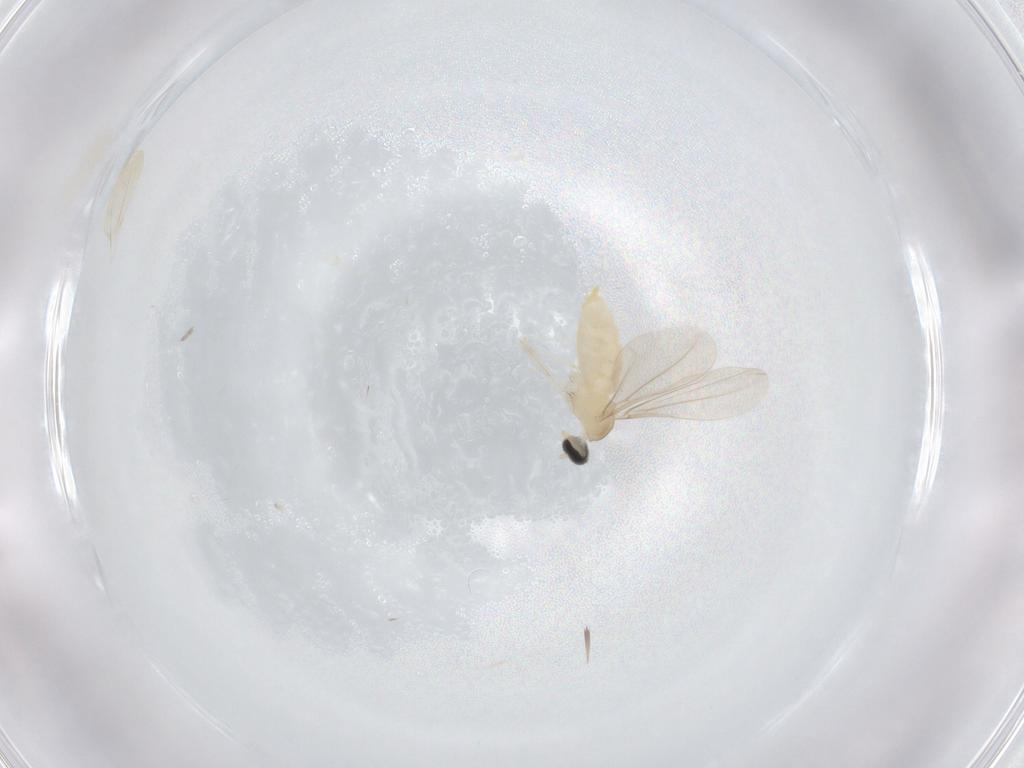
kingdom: Animalia
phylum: Arthropoda
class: Insecta
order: Diptera
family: Cecidomyiidae
